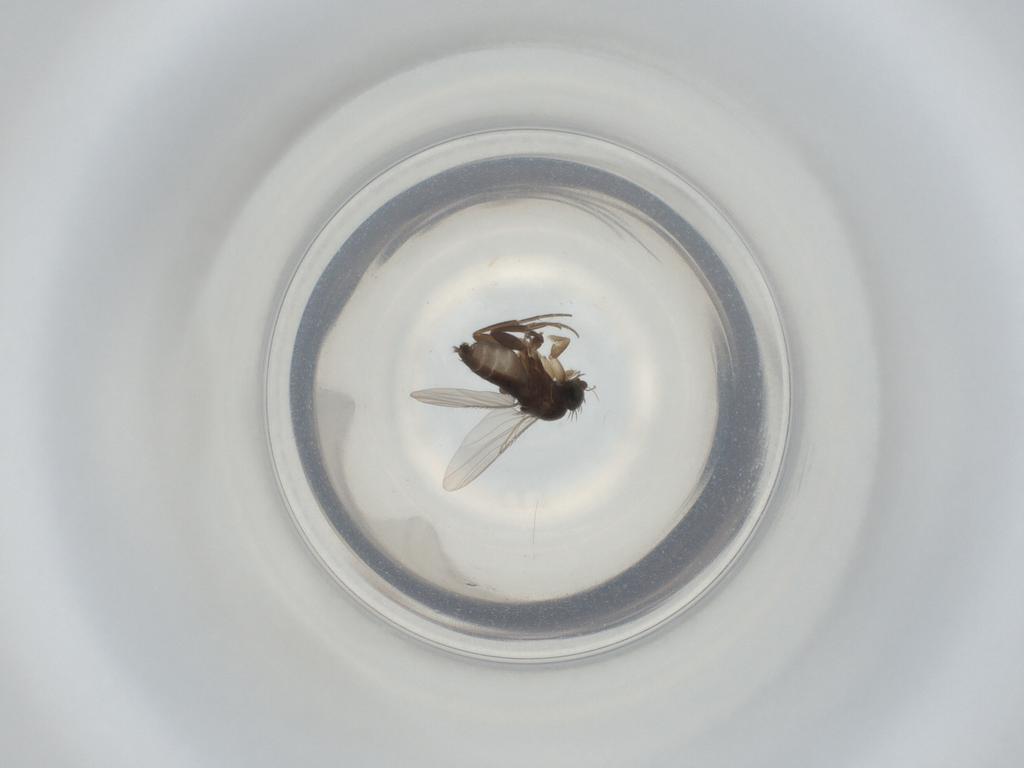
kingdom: Animalia
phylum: Arthropoda
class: Insecta
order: Diptera
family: Phoridae
